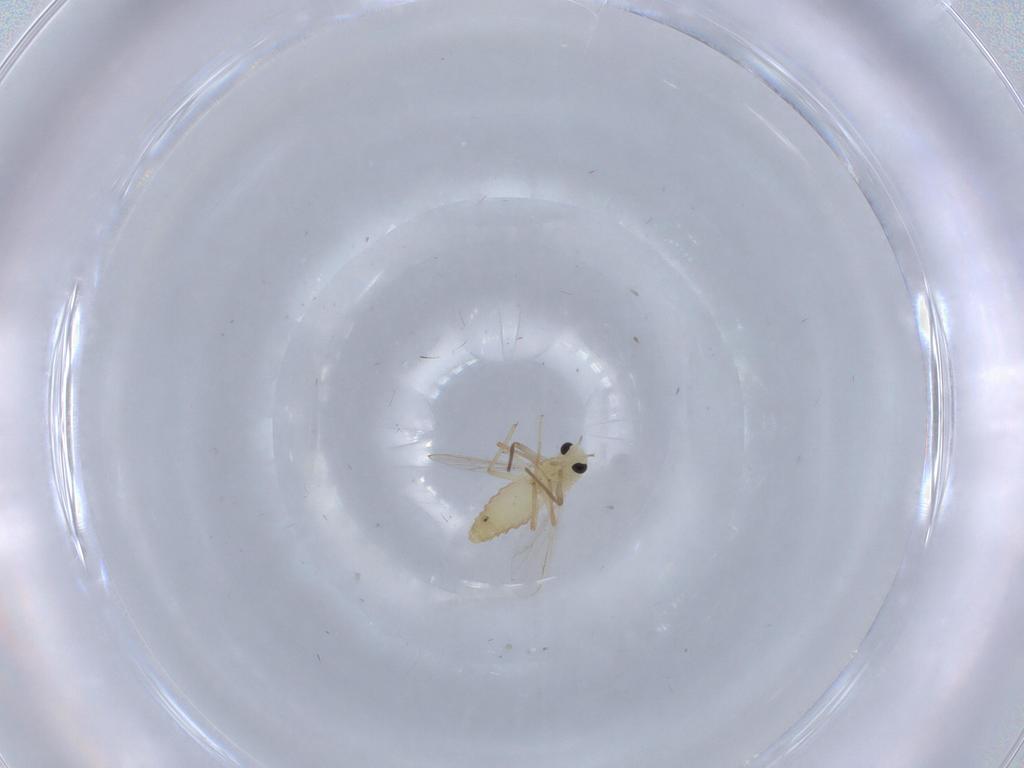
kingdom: Animalia
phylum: Arthropoda
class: Insecta
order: Diptera
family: Chironomidae
